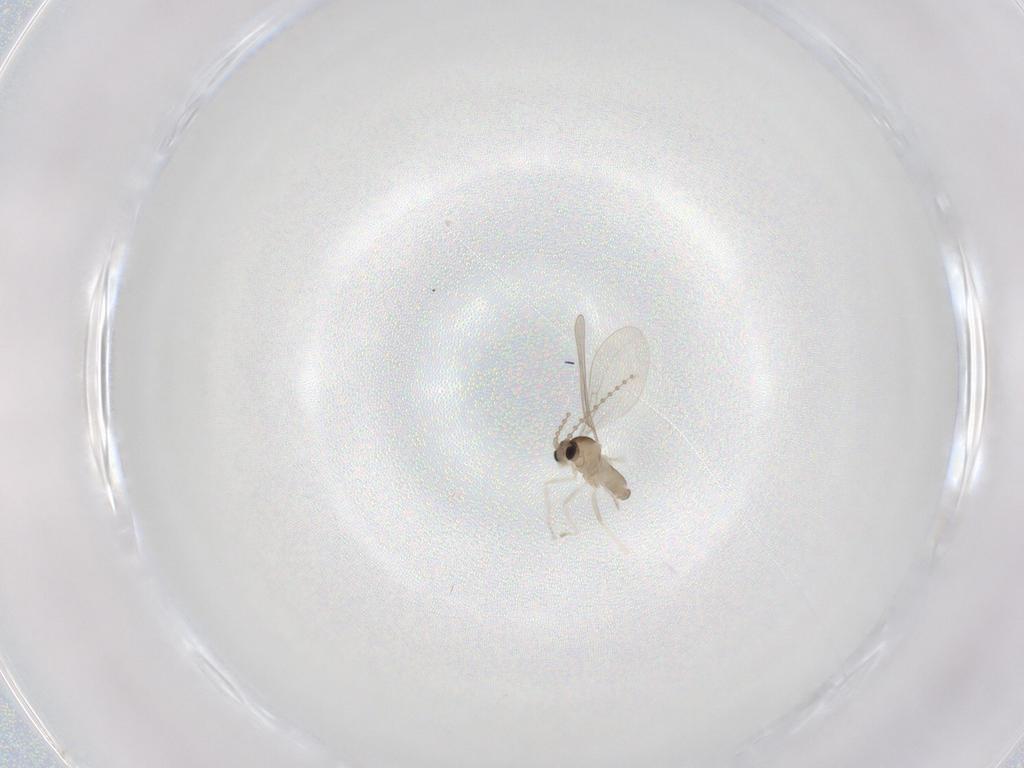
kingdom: Animalia
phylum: Arthropoda
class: Insecta
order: Diptera
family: Cecidomyiidae
